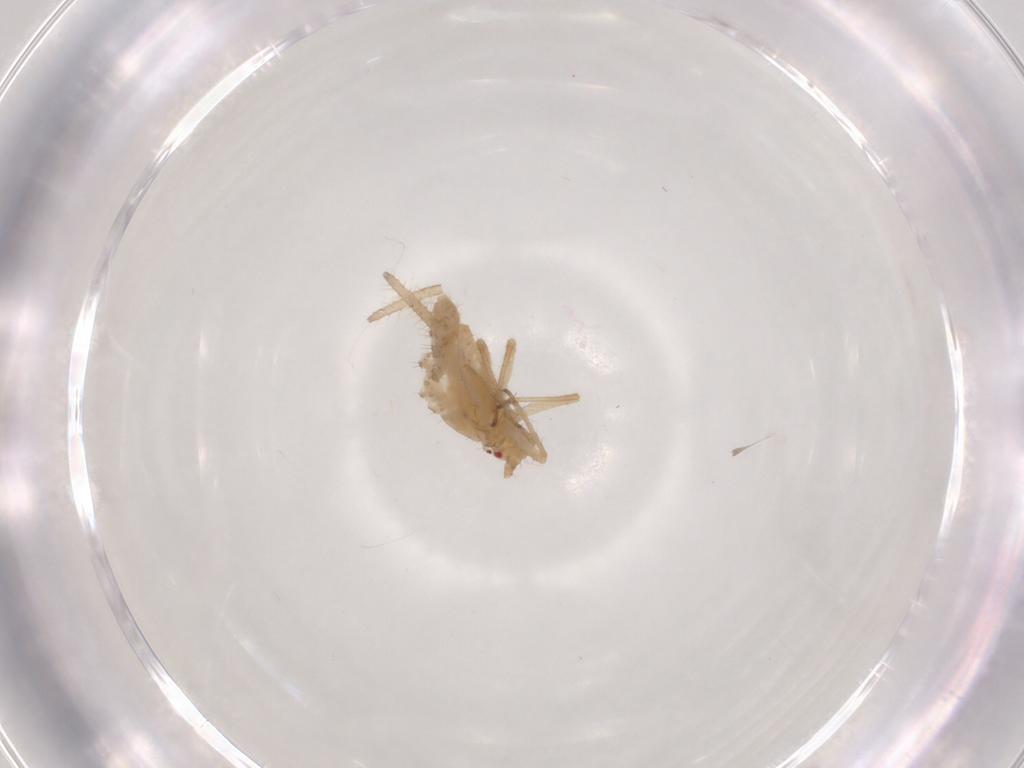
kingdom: Animalia
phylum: Arthropoda
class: Insecta
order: Hemiptera
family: Aphididae
